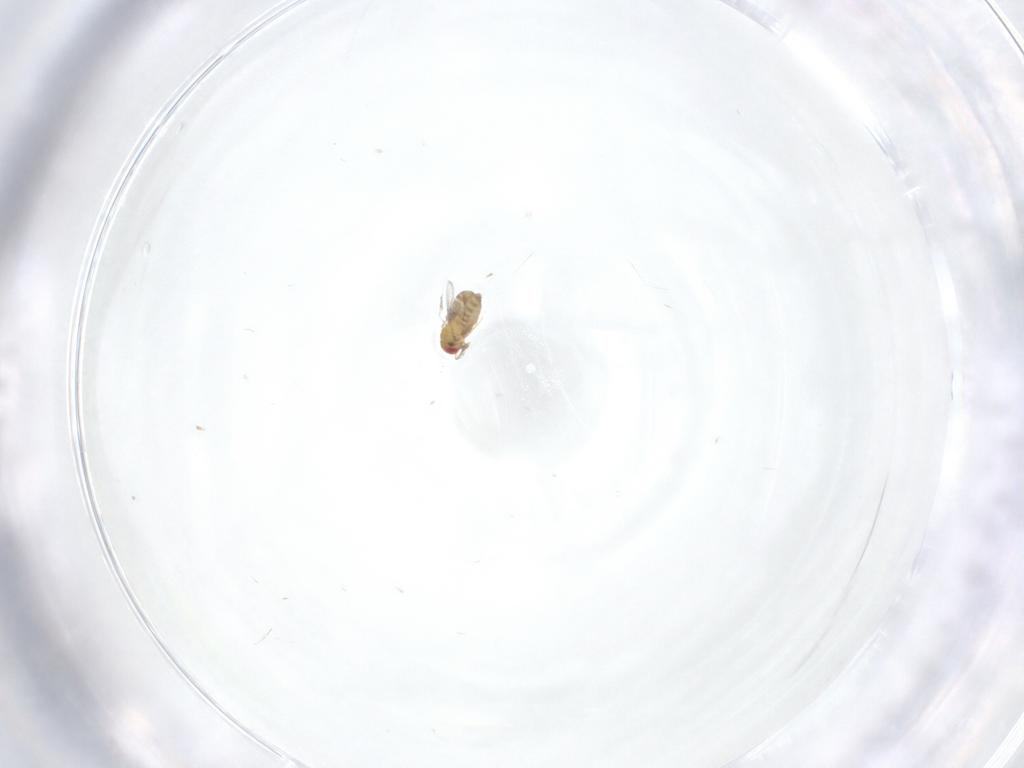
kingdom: Animalia
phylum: Arthropoda
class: Insecta
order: Hymenoptera
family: Trichogrammatidae
